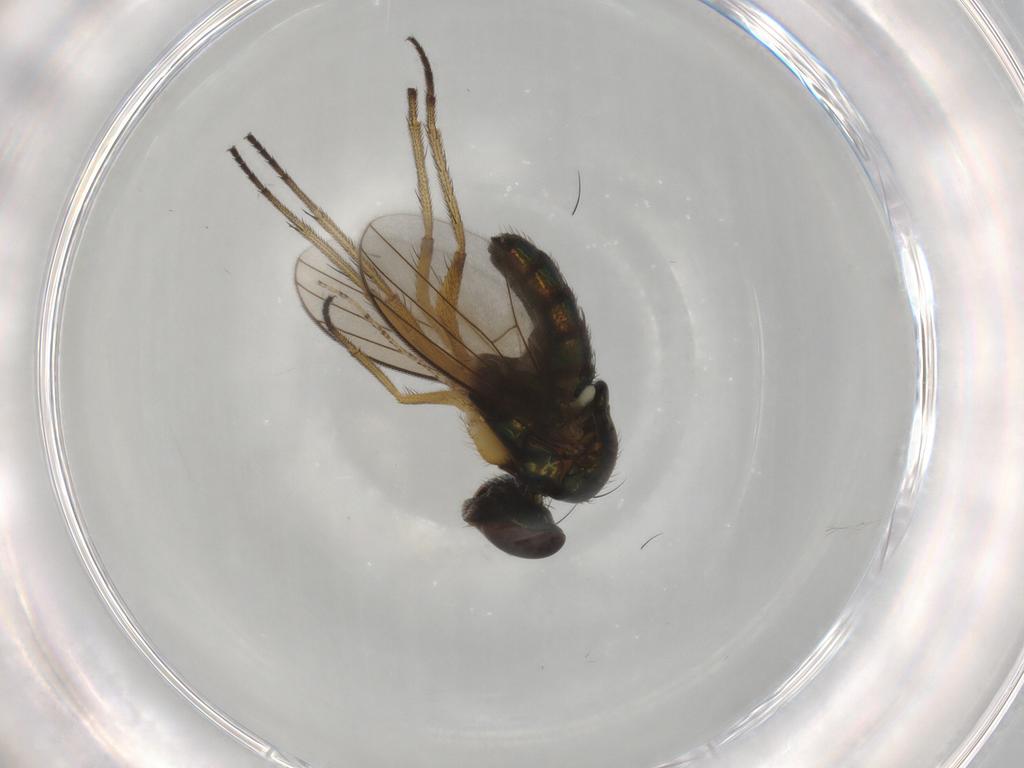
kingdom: Animalia
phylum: Arthropoda
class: Insecta
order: Diptera
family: Dolichopodidae
